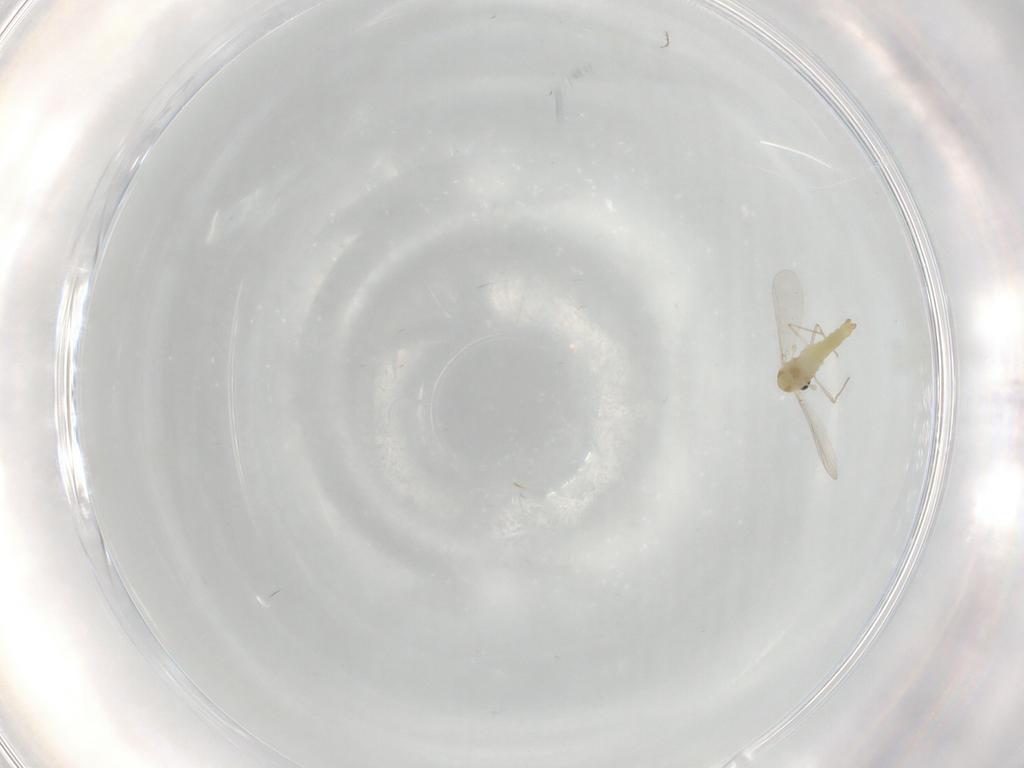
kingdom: Animalia
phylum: Arthropoda
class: Insecta
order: Diptera
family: Chironomidae
